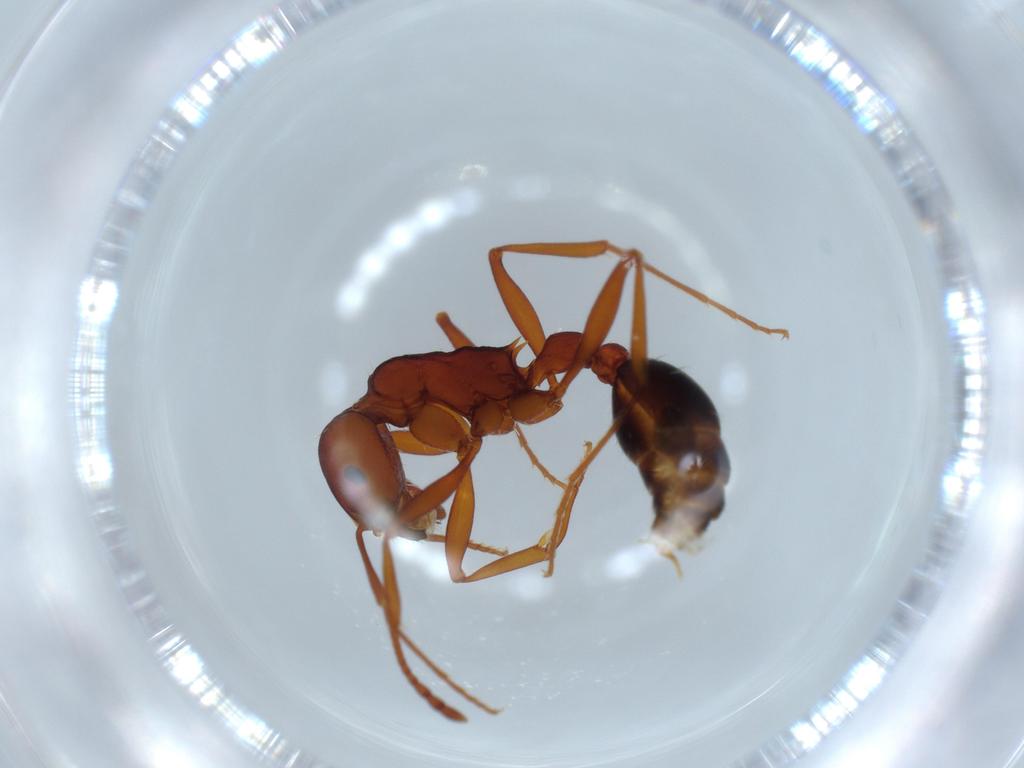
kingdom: Animalia
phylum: Arthropoda
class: Insecta
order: Hymenoptera
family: Formicidae
